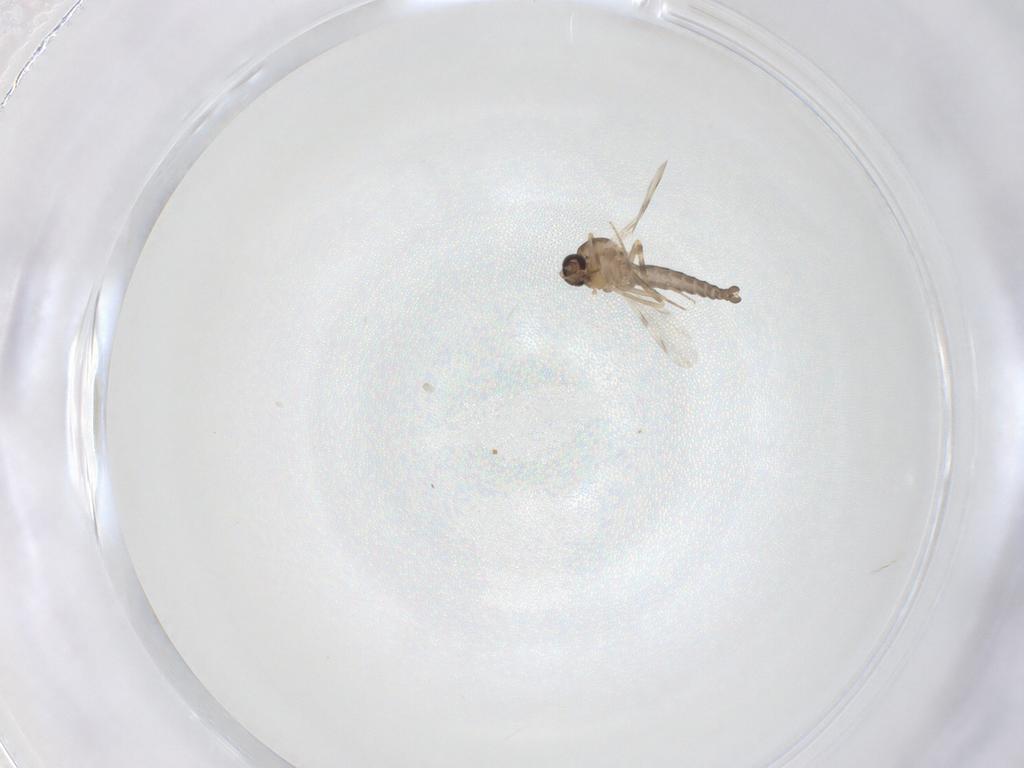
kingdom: Animalia
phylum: Arthropoda
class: Insecta
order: Diptera
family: Ceratopogonidae
